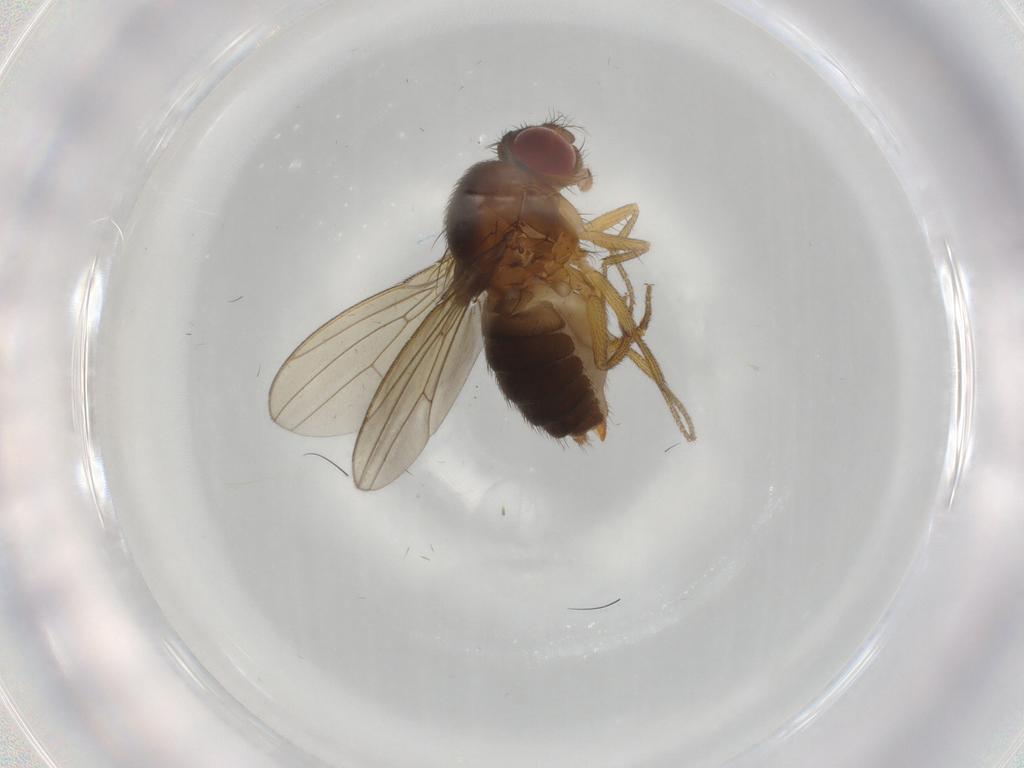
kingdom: Animalia
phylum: Arthropoda
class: Insecta
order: Diptera
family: Drosophilidae
